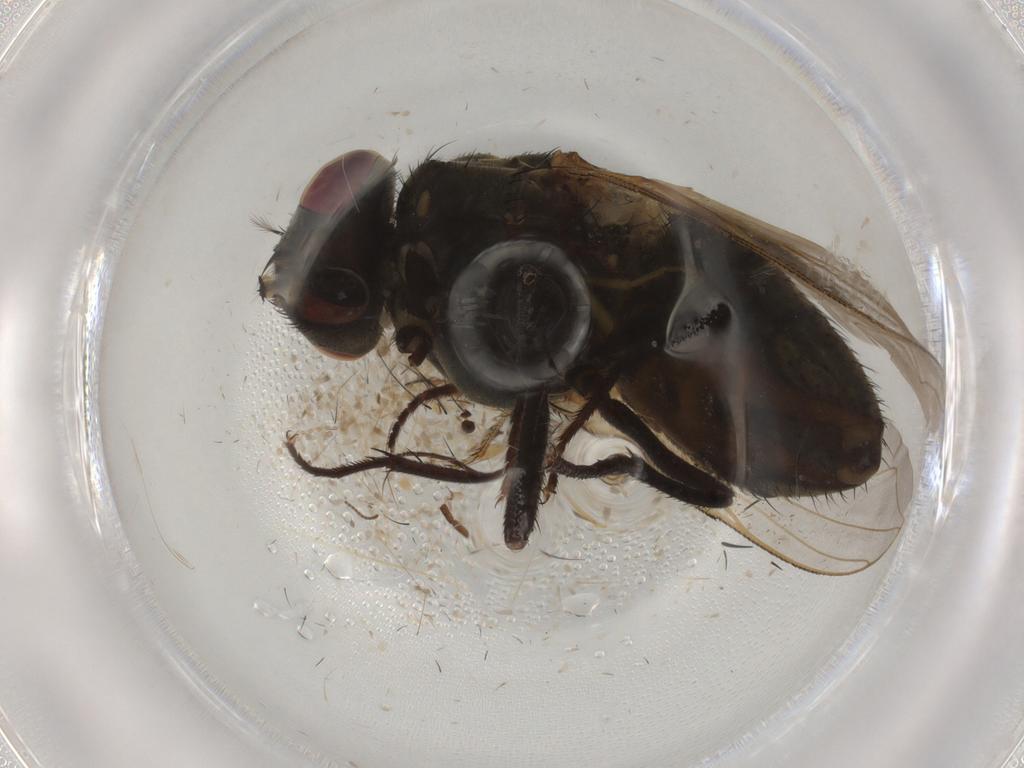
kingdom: Animalia
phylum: Arthropoda
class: Insecta
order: Diptera
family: Muscidae
